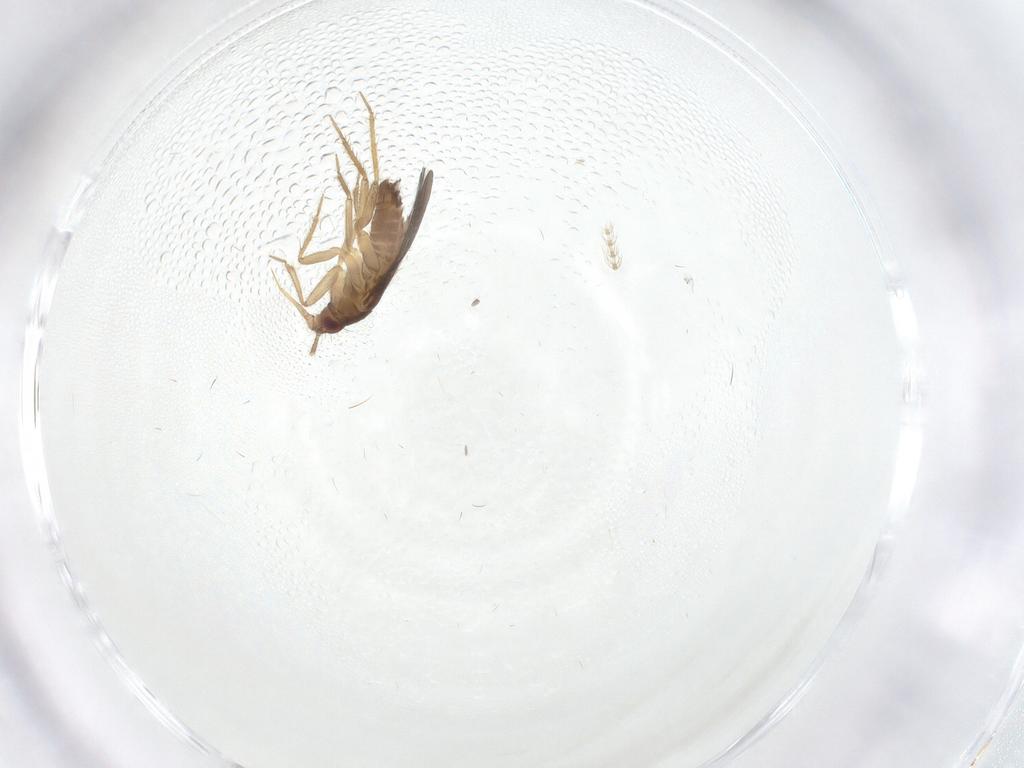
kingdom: Animalia
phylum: Arthropoda
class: Insecta
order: Hemiptera
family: Ceratocombidae
